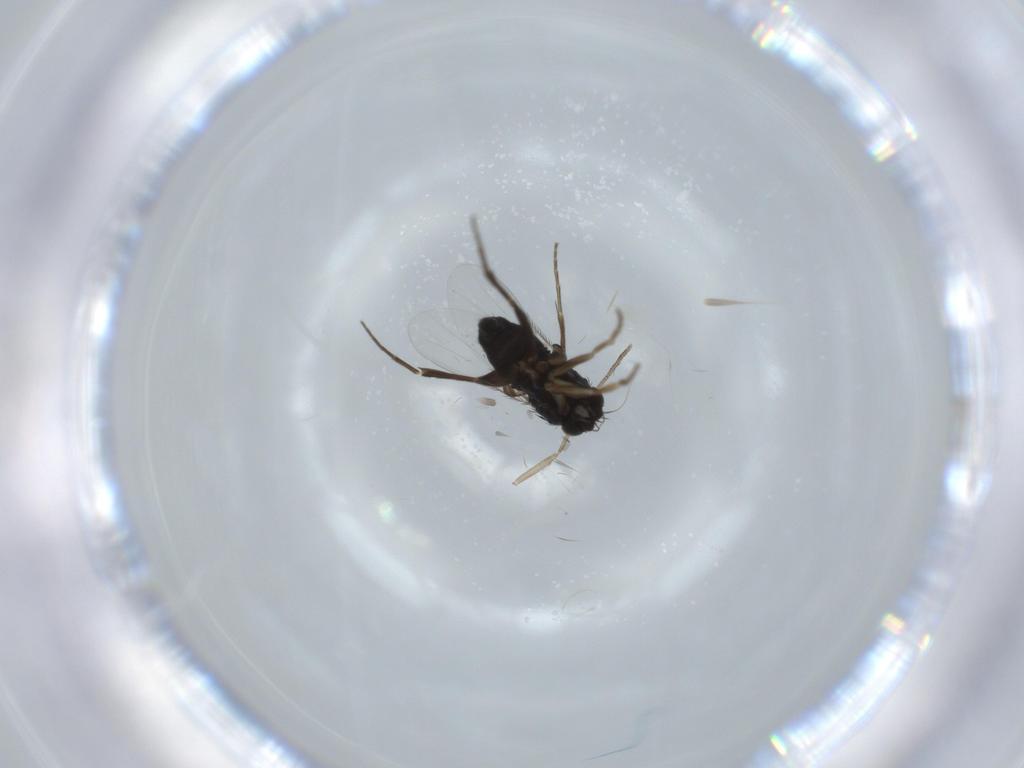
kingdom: Animalia
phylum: Arthropoda
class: Insecta
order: Diptera
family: Phoridae
